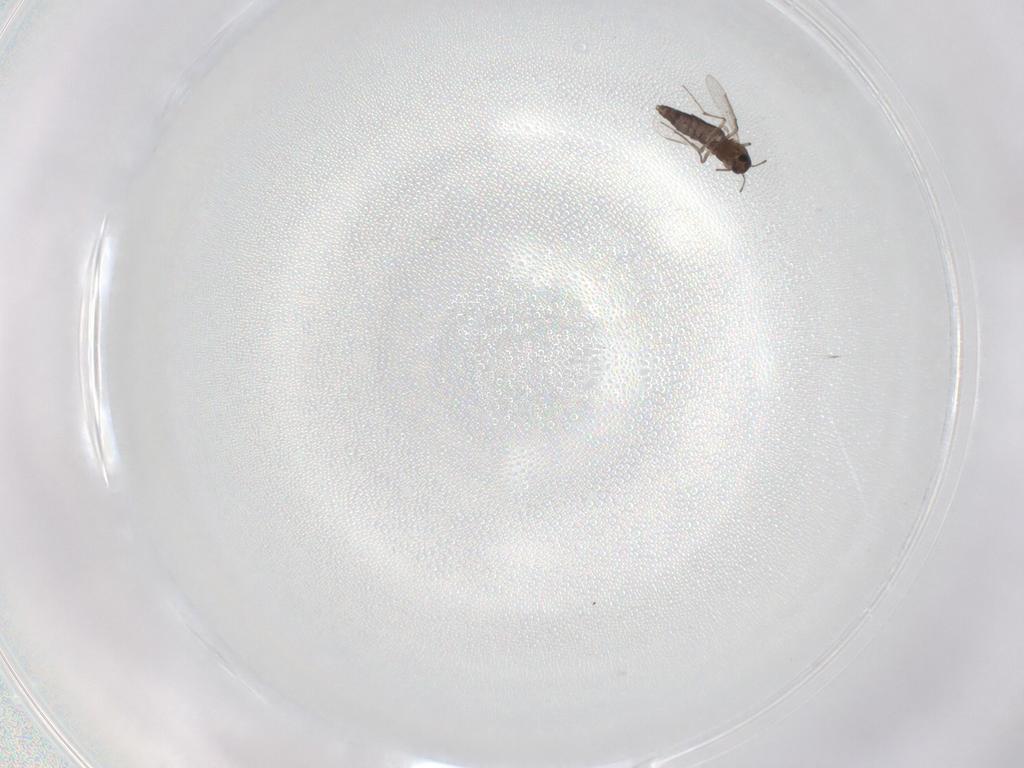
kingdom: Animalia
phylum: Arthropoda
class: Insecta
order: Diptera
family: Chironomidae
